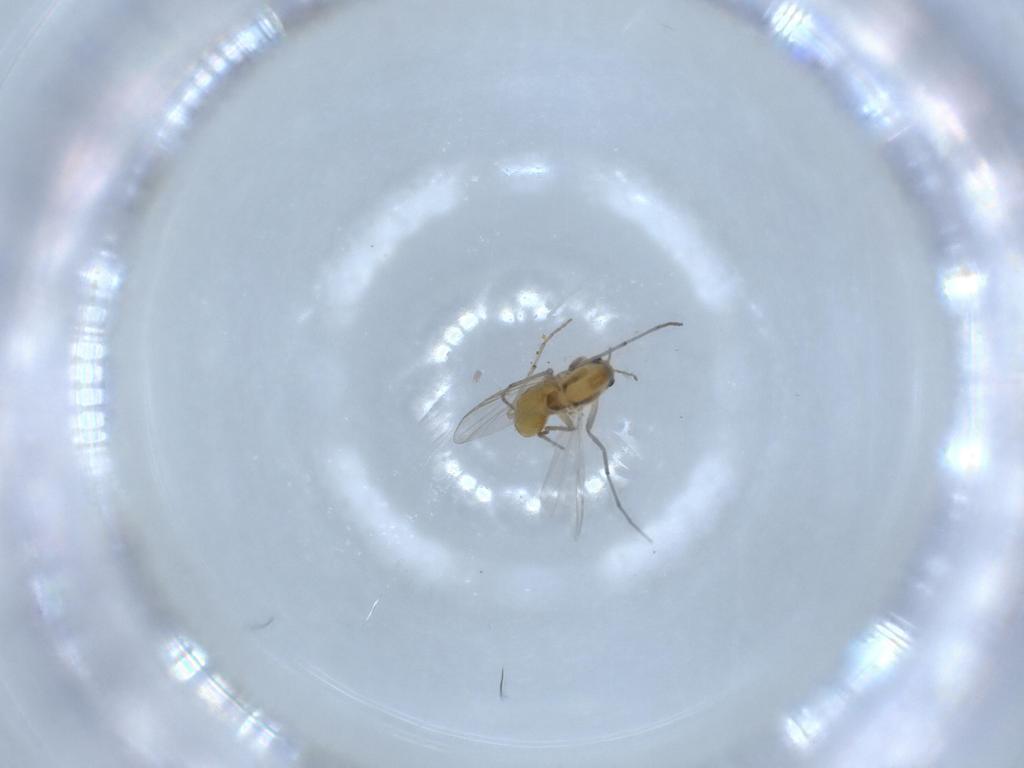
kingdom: Animalia
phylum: Arthropoda
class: Insecta
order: Diptera
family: Chironomidae
